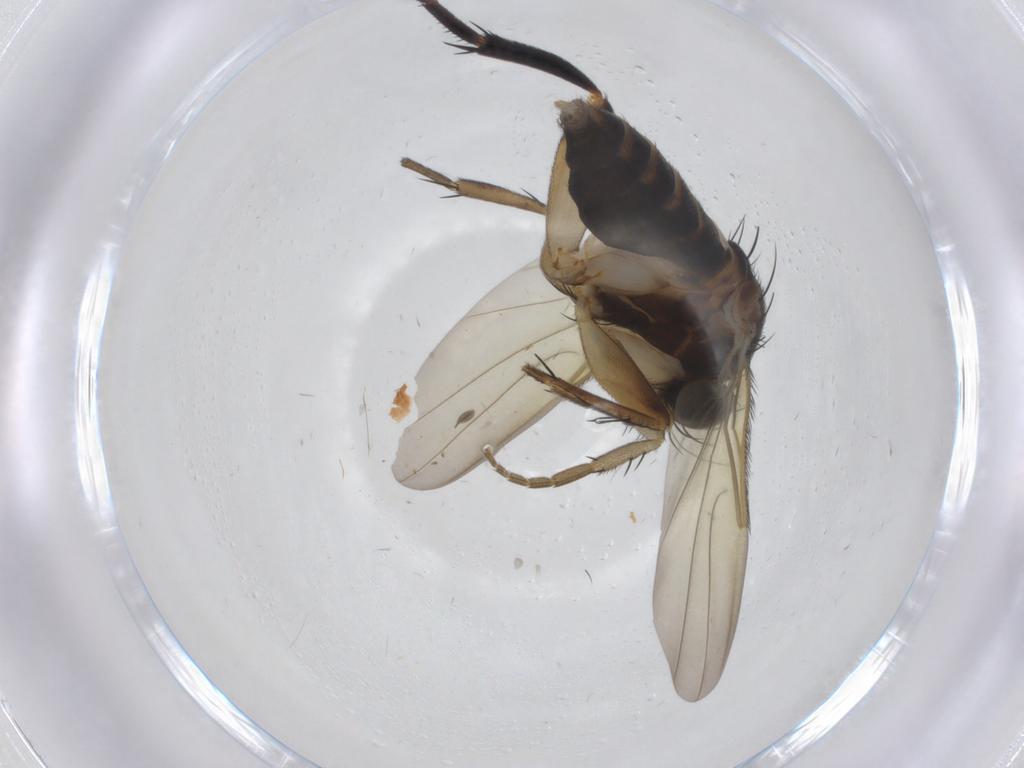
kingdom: Animalia
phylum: Arthropoda
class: Insecta
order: Diptera
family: Phoridae
